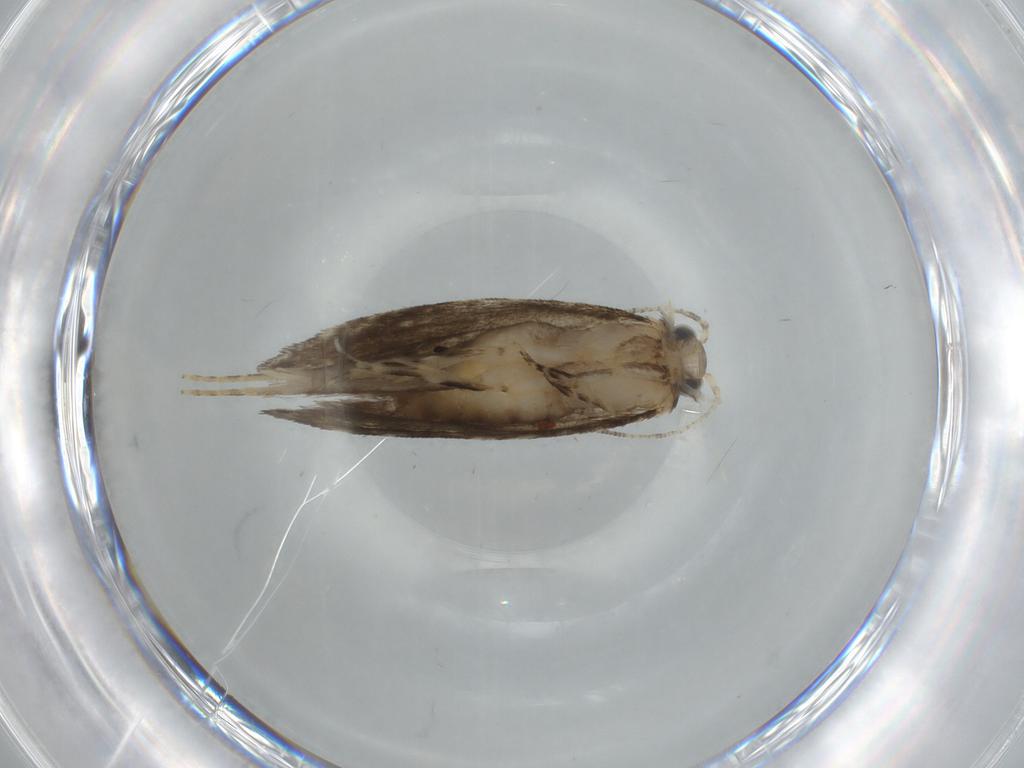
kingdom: Animalia
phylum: Arthropoda
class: Insecta
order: Lepidoptera
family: Tineidae
